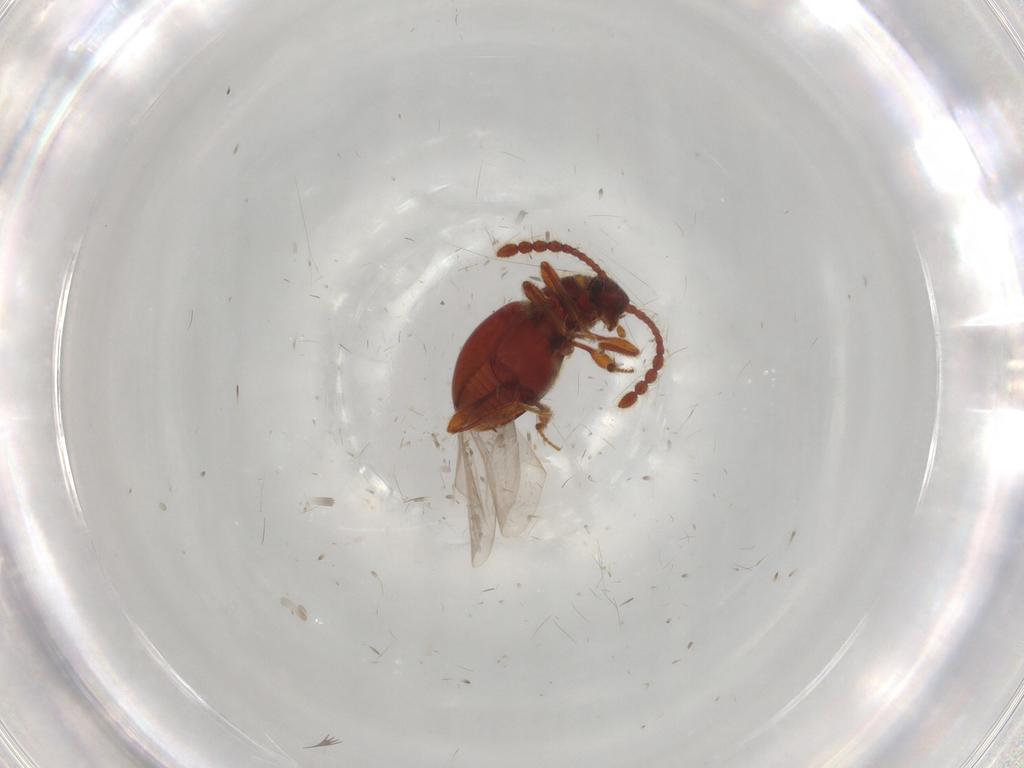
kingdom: Animalia
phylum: Arthropoda
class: Insecta
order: Coleoptera
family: Staphylinidae
